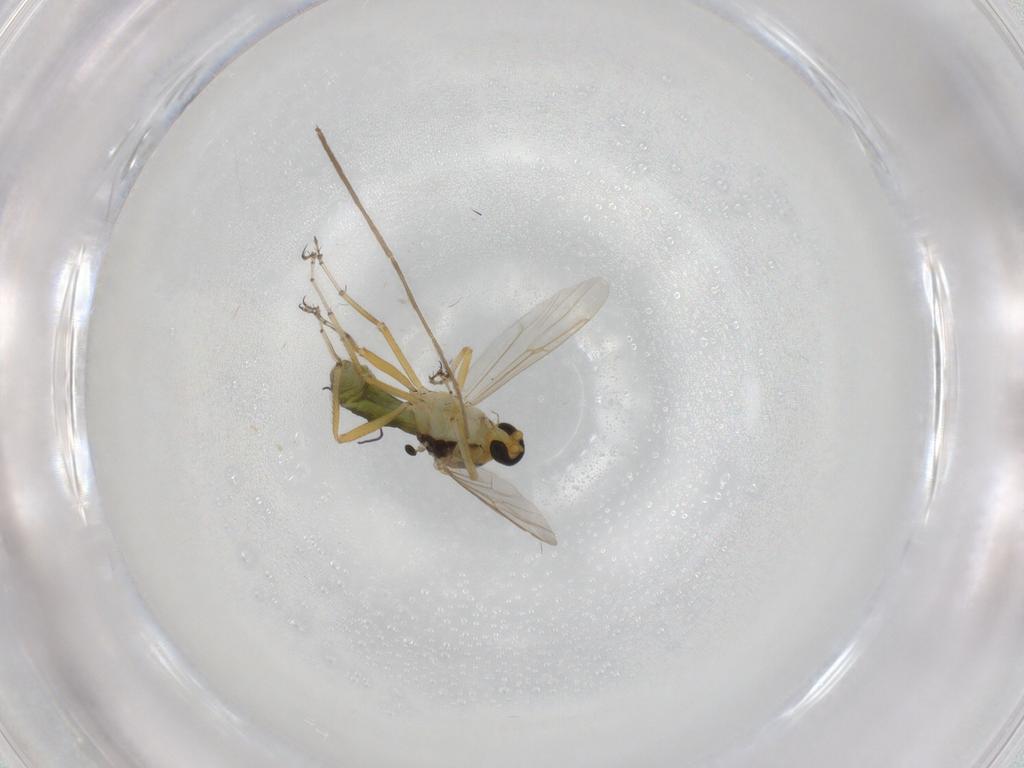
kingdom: Animalia
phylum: Arthropoda
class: Insecta
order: Diptera
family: Ceratopogonidae
